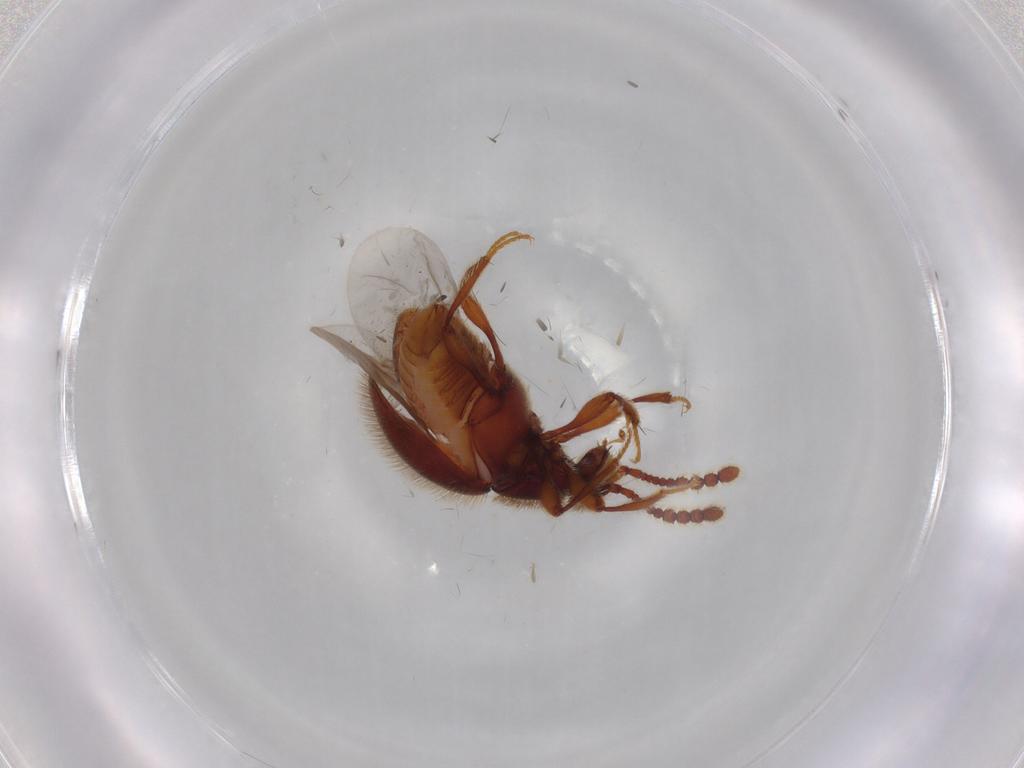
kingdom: Animalia
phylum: Arthropoda
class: Insecta
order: Coleoptera
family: Staphylinidae
